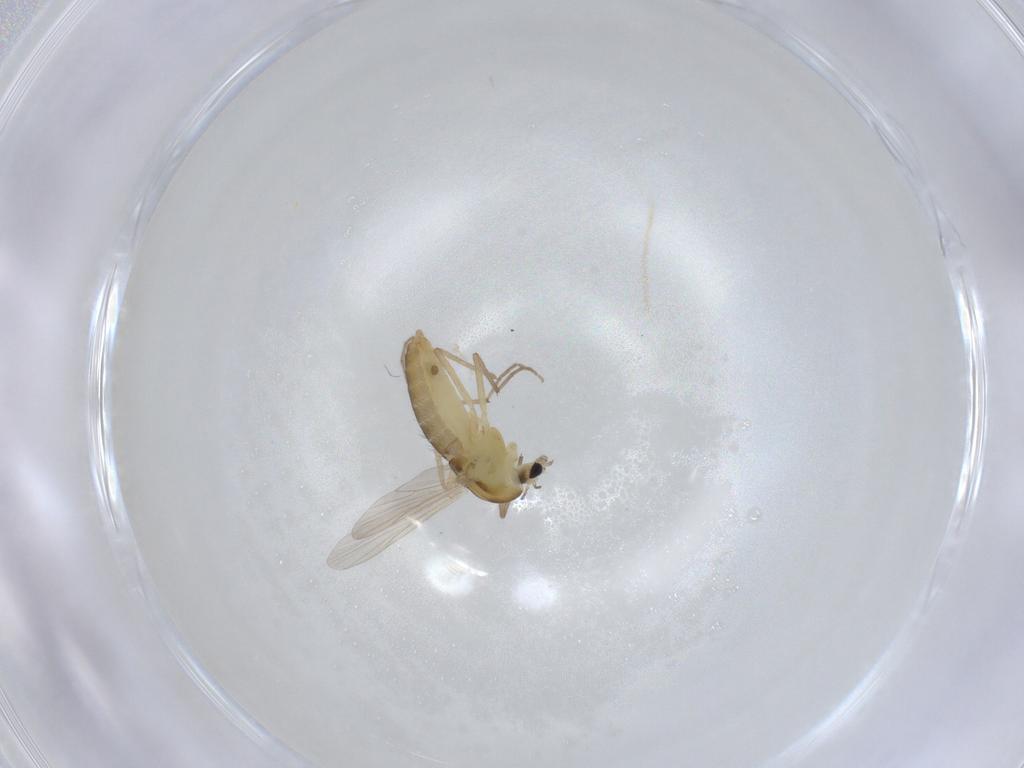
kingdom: Animalia
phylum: Arthropoda
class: Insecta
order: Diptera
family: Chironomidae
